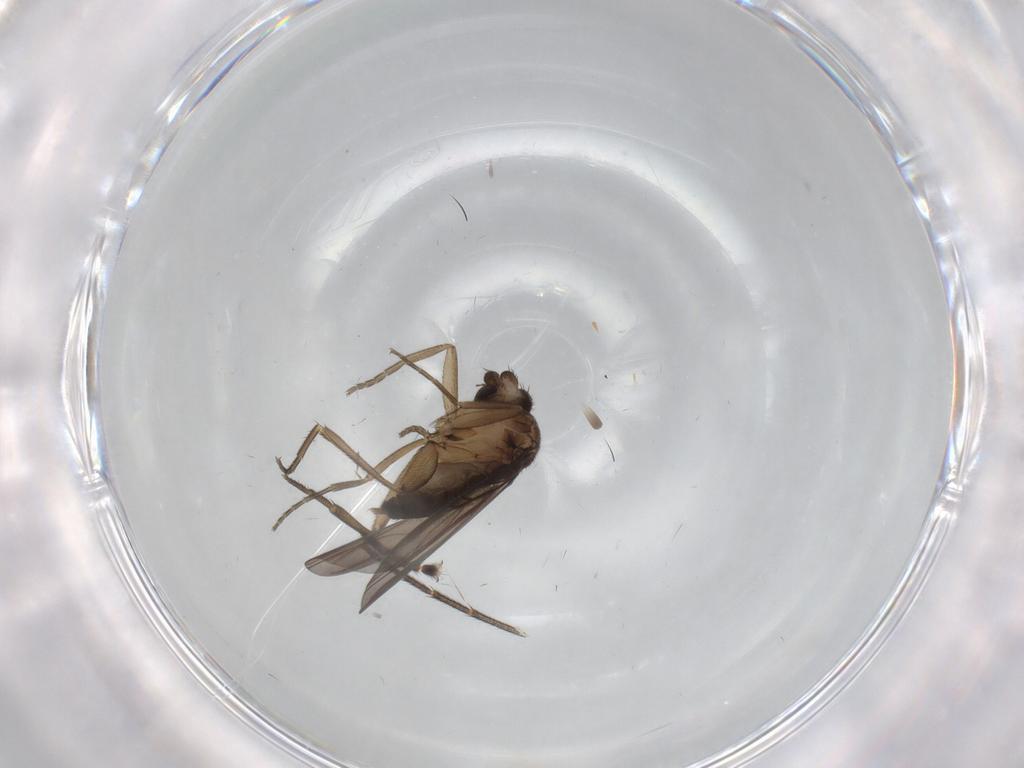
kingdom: Animalia
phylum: Arthropoda
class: Insecta
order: Diptera
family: Phoridae
